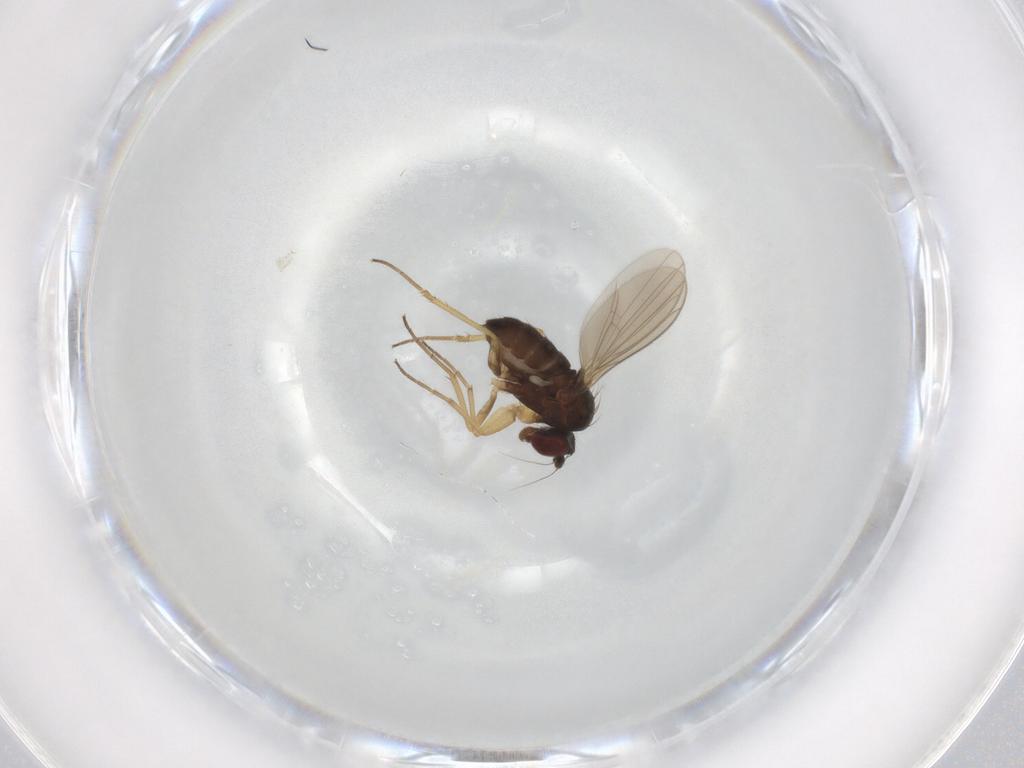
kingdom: Animalia
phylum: Arthropoda
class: Insecta
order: Diptera
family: Dolichopodidae
